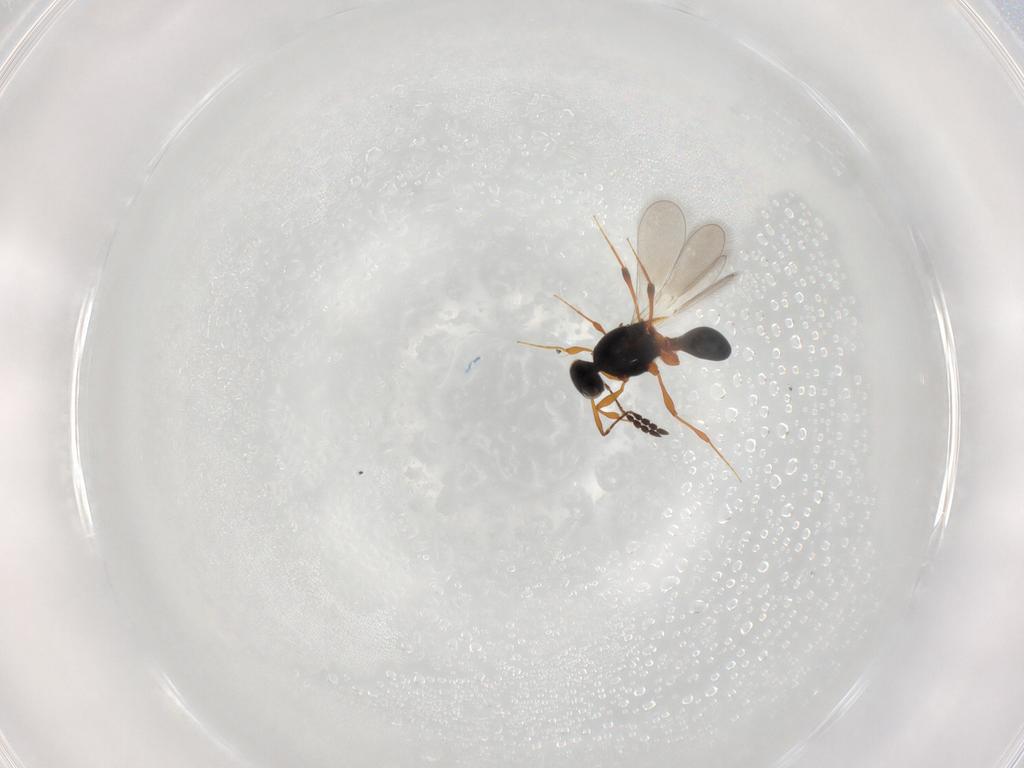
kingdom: Animalia
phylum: Arthropoda
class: Insecta
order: Hymenoptera
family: Platygastridae
